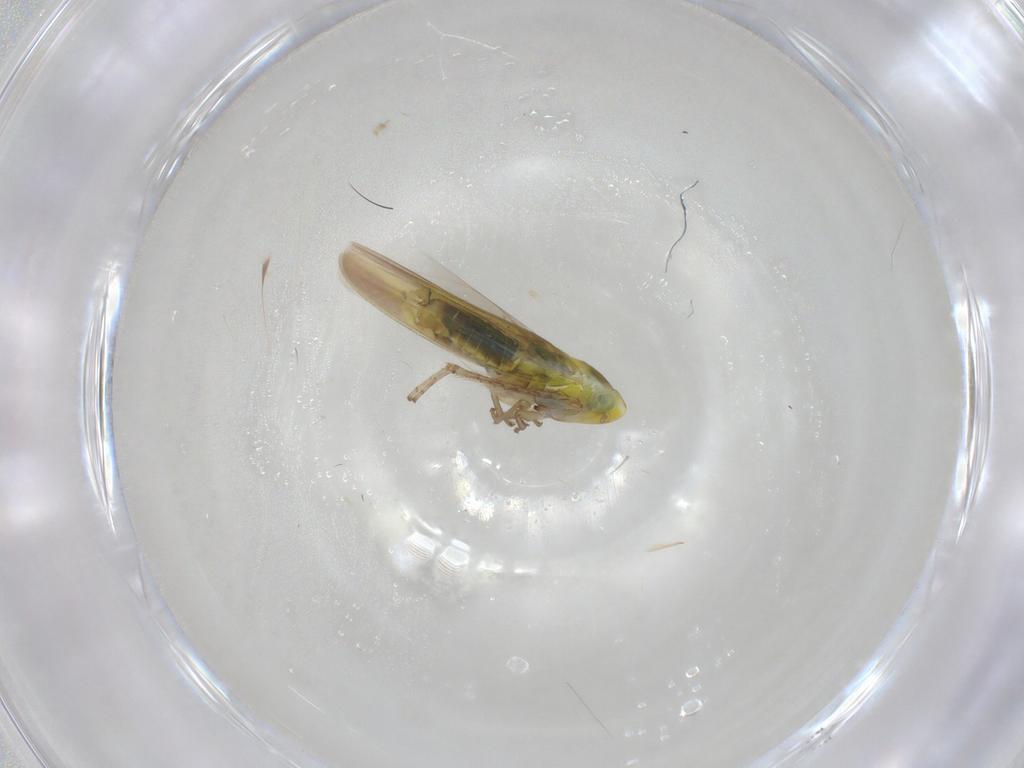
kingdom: Animalia
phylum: Arthropoda
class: Insecta
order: Hemiptera
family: Cicadellidae
